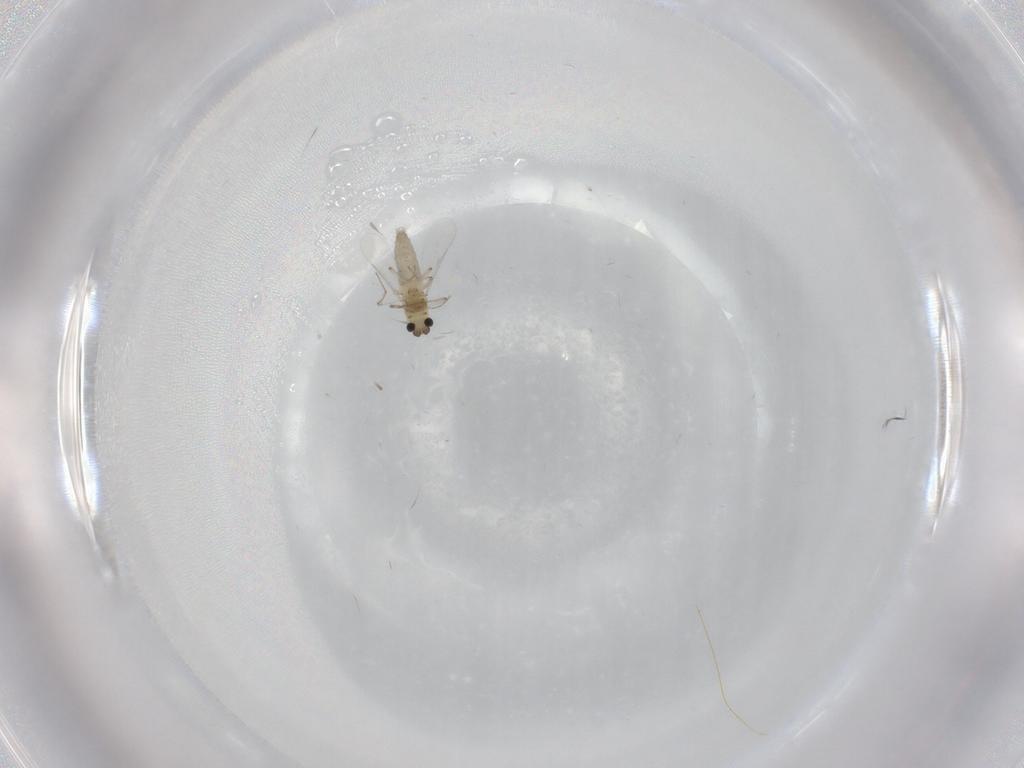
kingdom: Animalia
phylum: Arthropoda
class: Insecta
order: Diptera
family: Chironomidae
